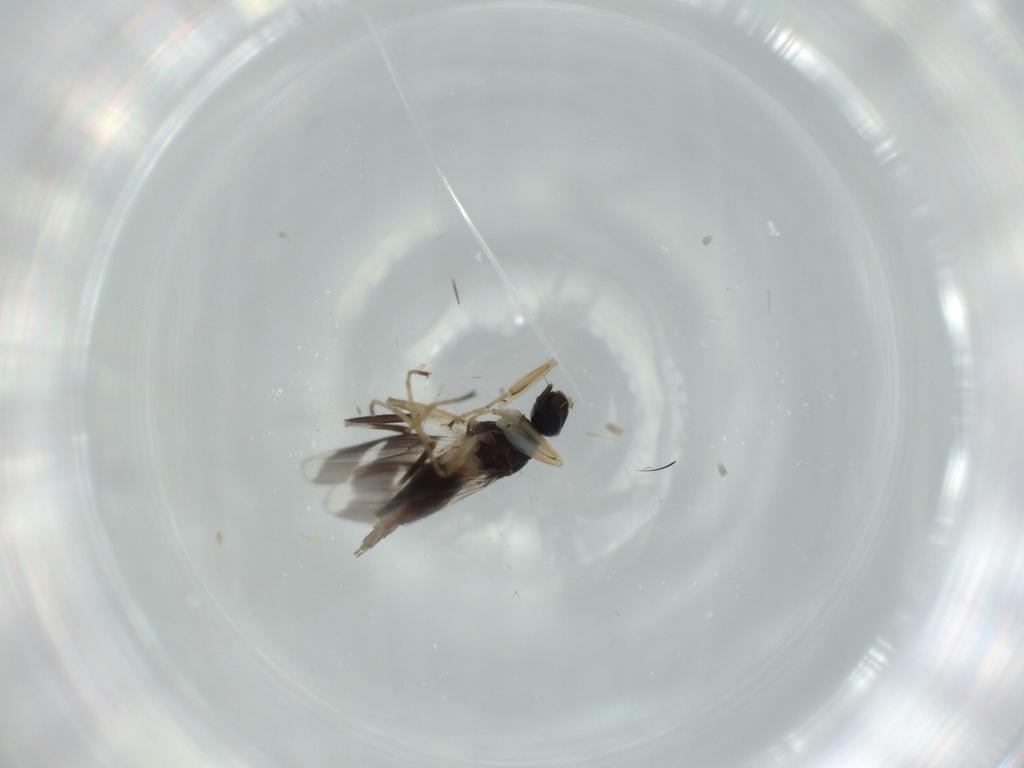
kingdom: Animalia
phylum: Arthropoda
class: Insecta
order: Diptera
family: Hybotidae
